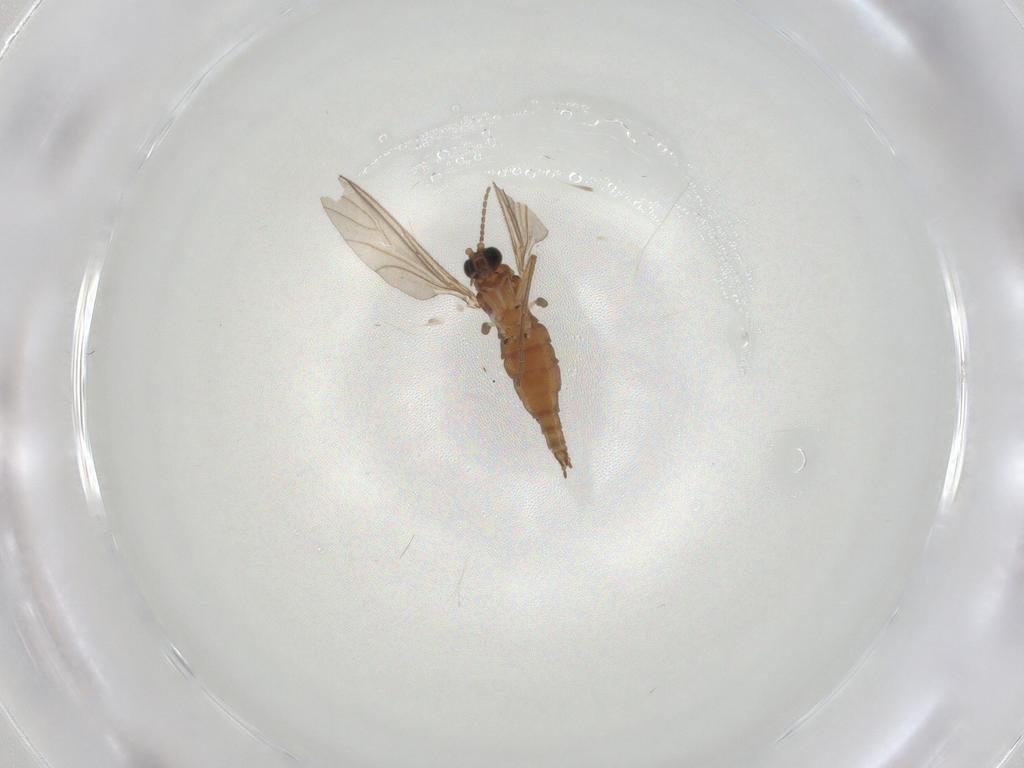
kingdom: Animalia
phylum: Arthropoda
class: Insecta
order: Diptera
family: Sciaridae
